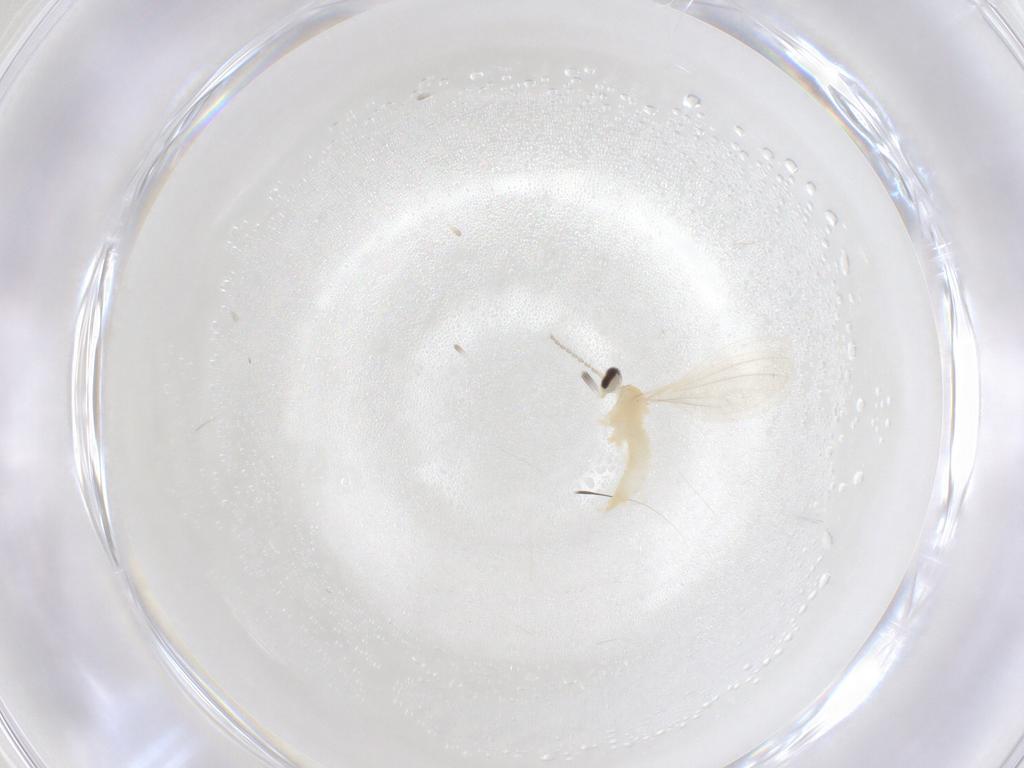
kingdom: Animalia
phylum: Arthropoda
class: Insecta
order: Diptera
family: Cecidomyiidae
